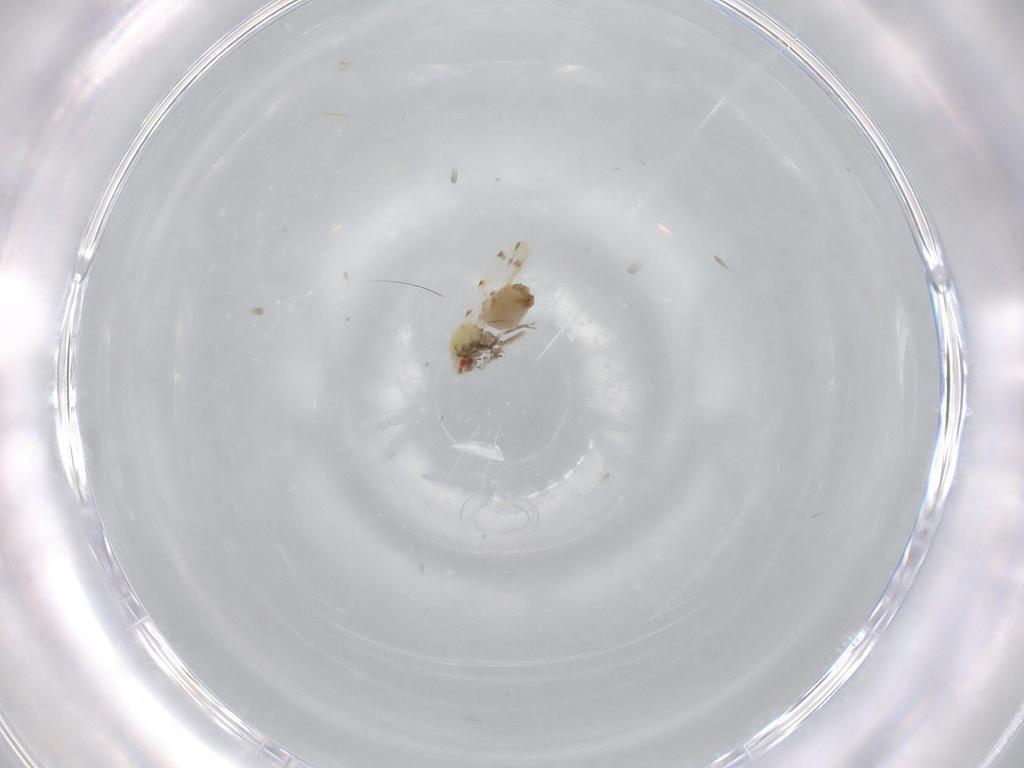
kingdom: Animalia
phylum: Arthropoda
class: Insecta
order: Hemiptera
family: Aleyrodidae
